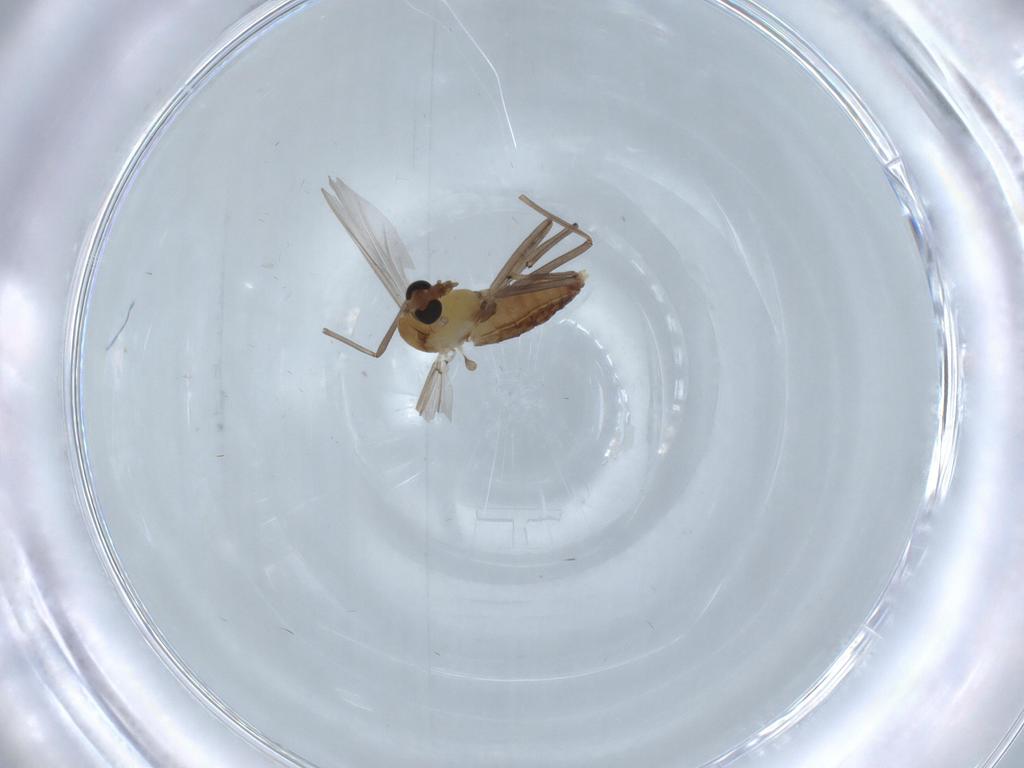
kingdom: Animalia
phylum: Arthropoda
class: Insecta
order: Diptera
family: Chironomidae
